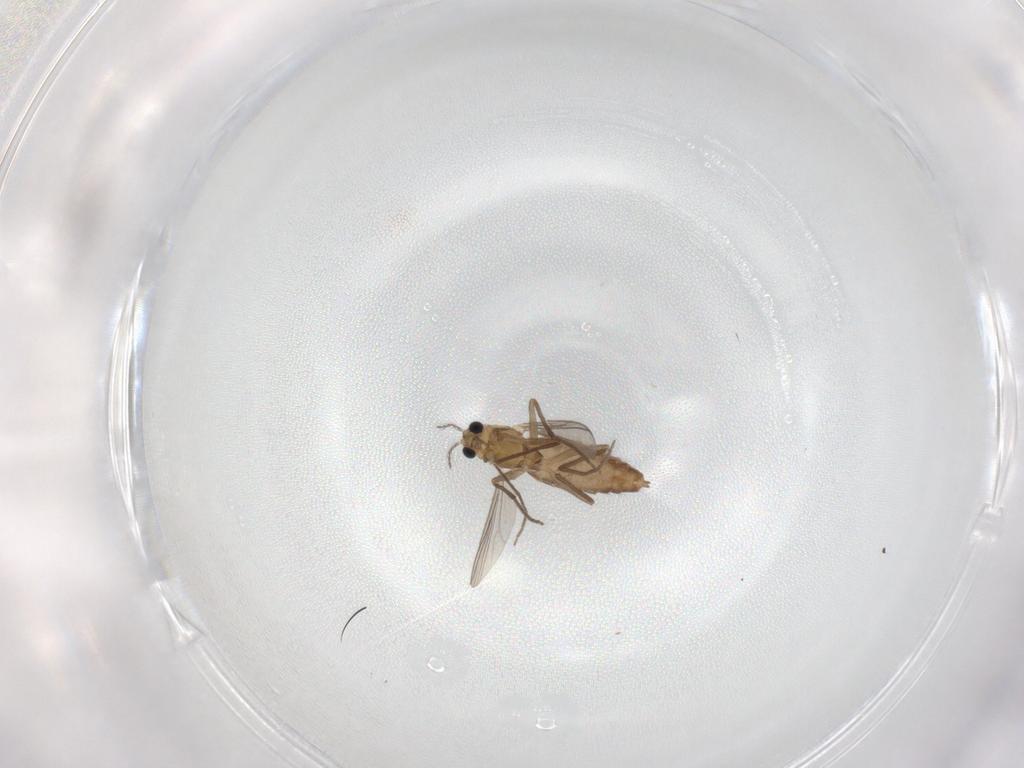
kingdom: Animalia
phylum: Arthropoda
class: Insecta
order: Diptera
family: Chironomidae
